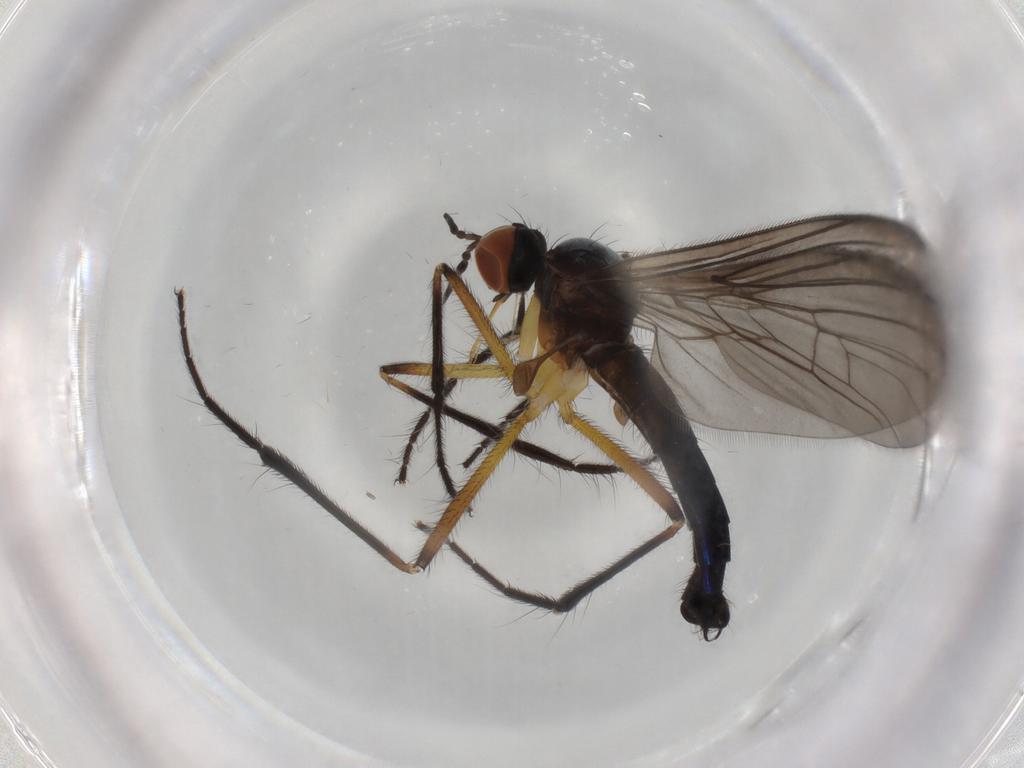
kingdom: Animalia
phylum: Arthropoda
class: Insecta
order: Diptera
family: Empididae
